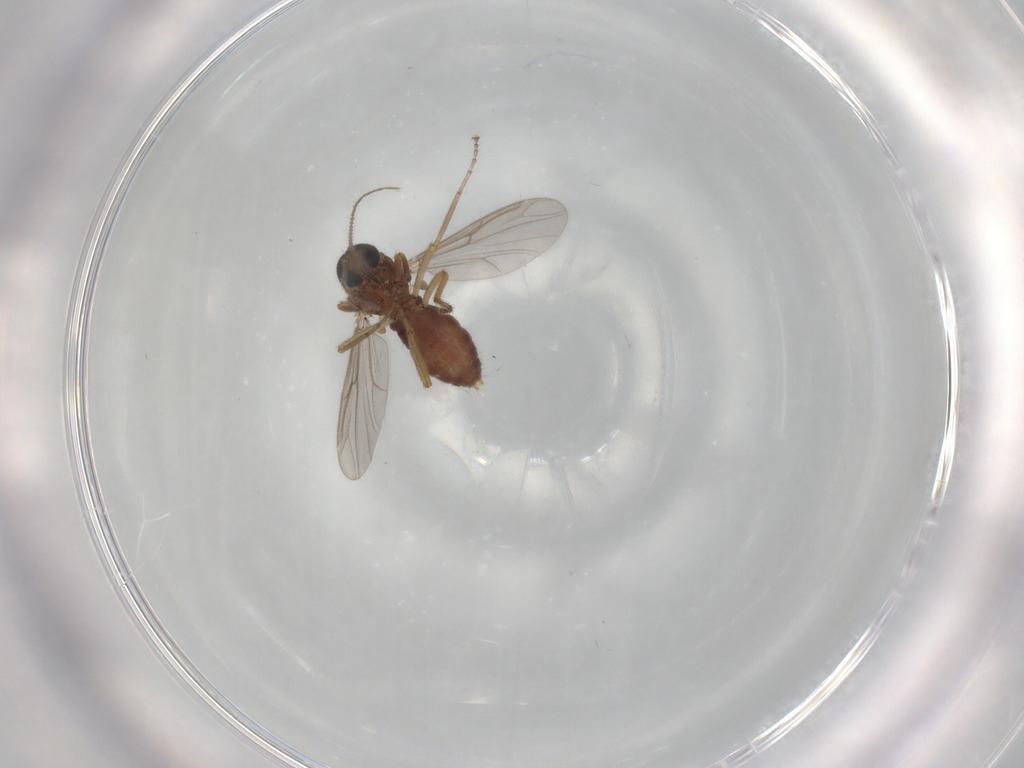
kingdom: Animalia
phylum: Arthropoda
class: Insecta
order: Diptera
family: Ceratopogonidae
